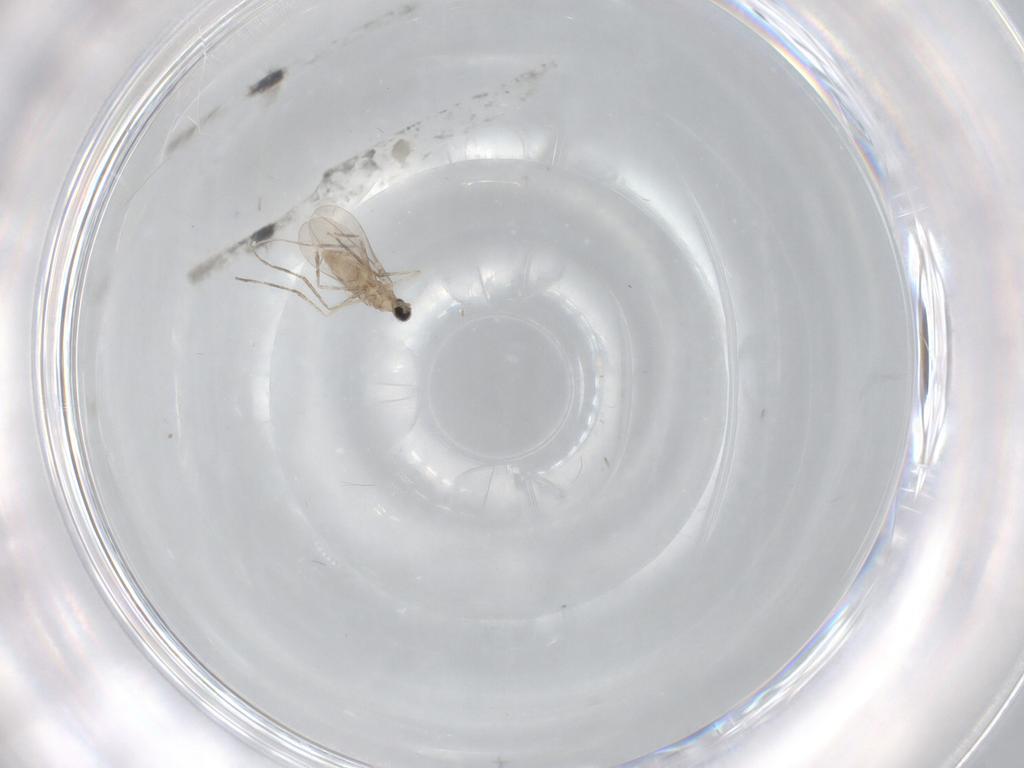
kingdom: Animalia
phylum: Arthropoda
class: Insecta
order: Diptera
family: Cecidomyiidae
